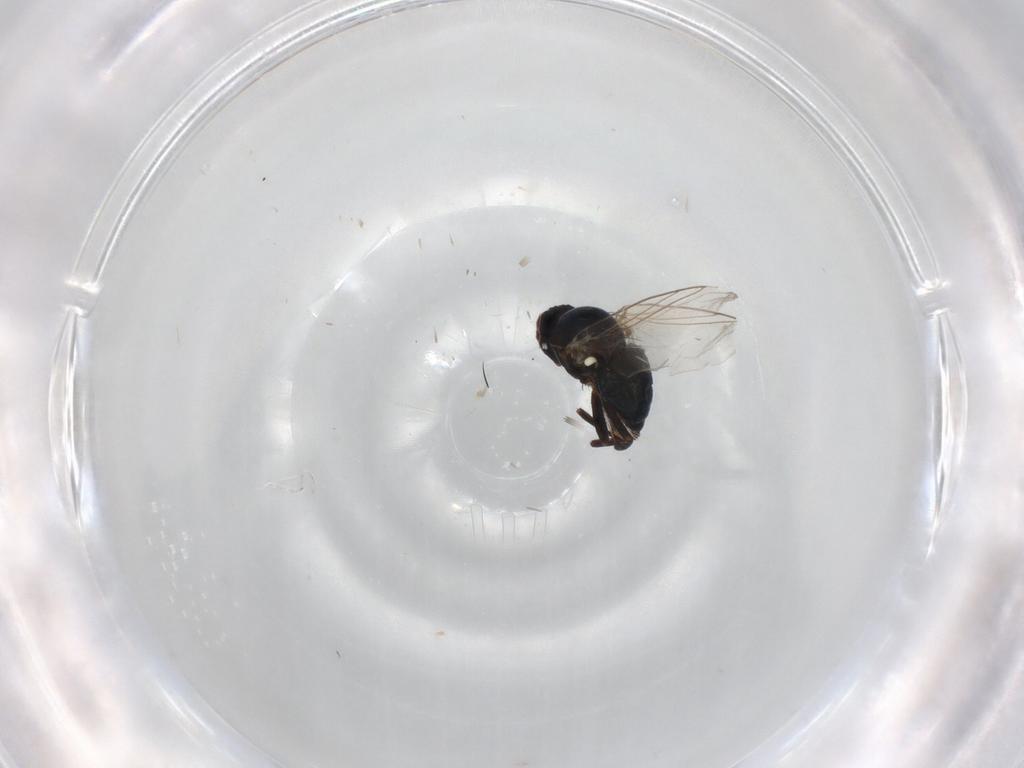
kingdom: Animalia
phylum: Arthropoda
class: Insecta
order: Diptera
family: Agromyzidae
